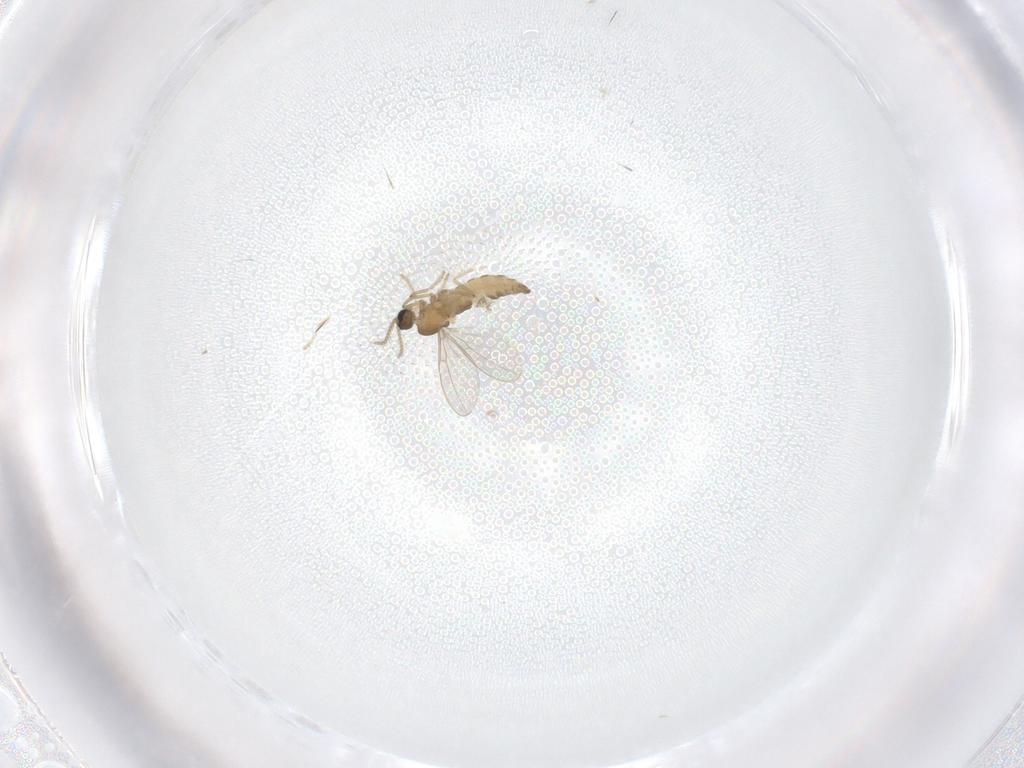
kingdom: Animalia
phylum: Arthropoda
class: Insecta
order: Diptera
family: Cecidomyiidae
